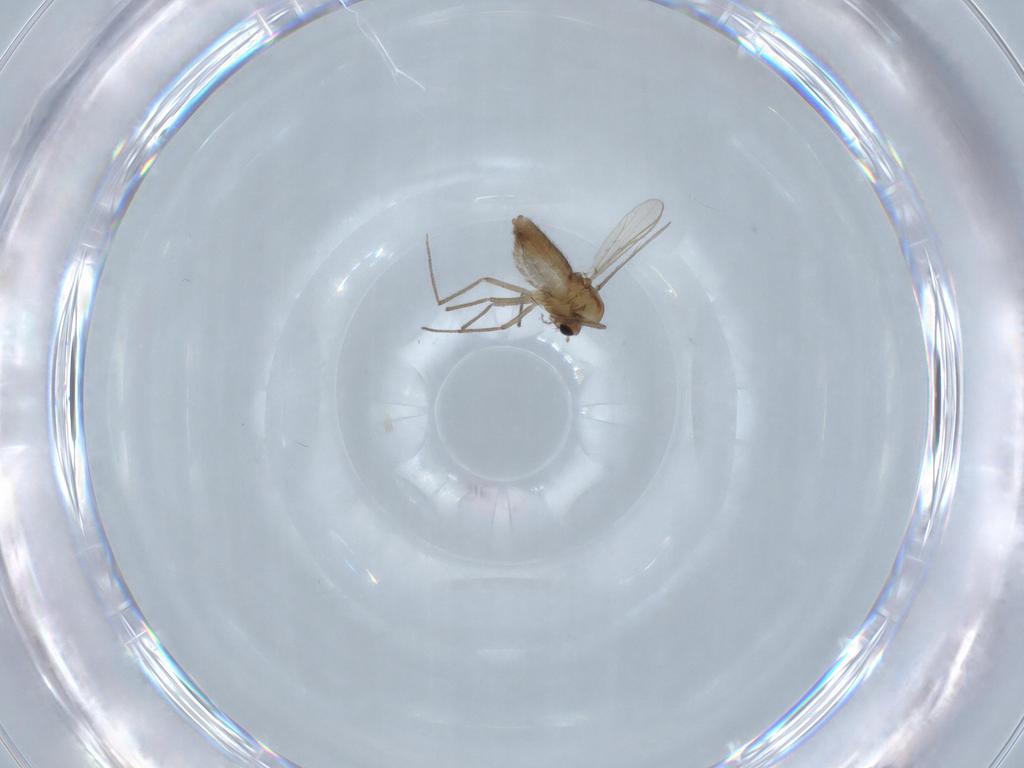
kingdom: Animalia
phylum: Arthropoda
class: Insecta
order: Diptera
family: Chironomidae
